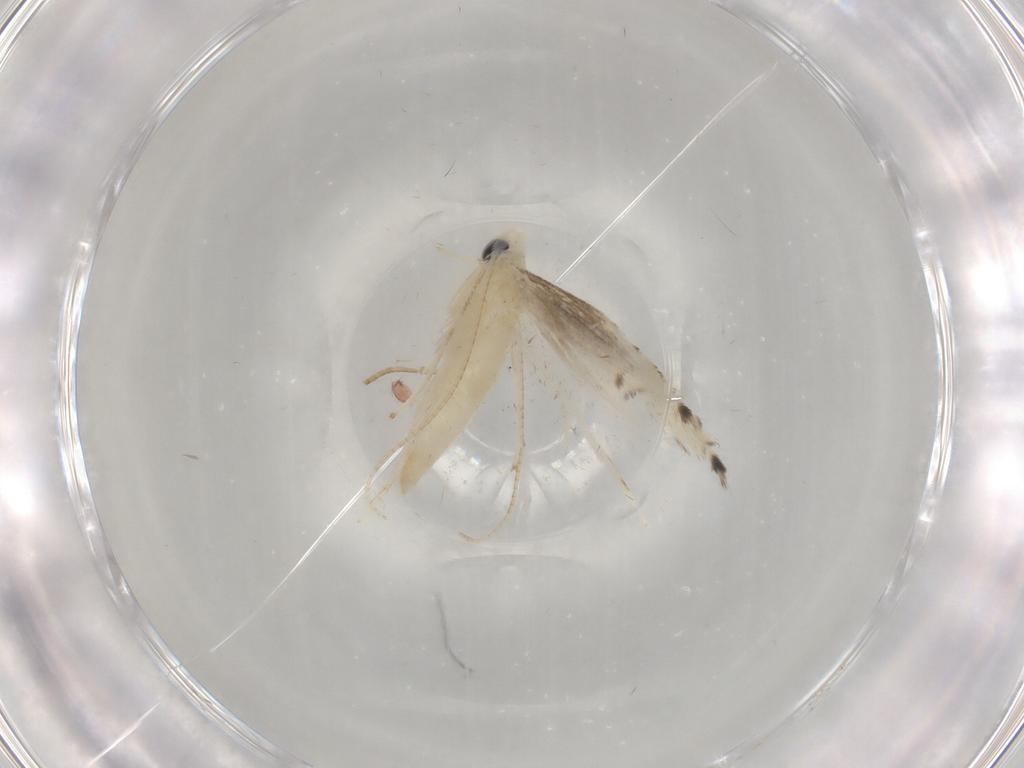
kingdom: Animalia
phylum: Arthropoda
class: Insecta
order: Lepidoptera
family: Gracillariidae
